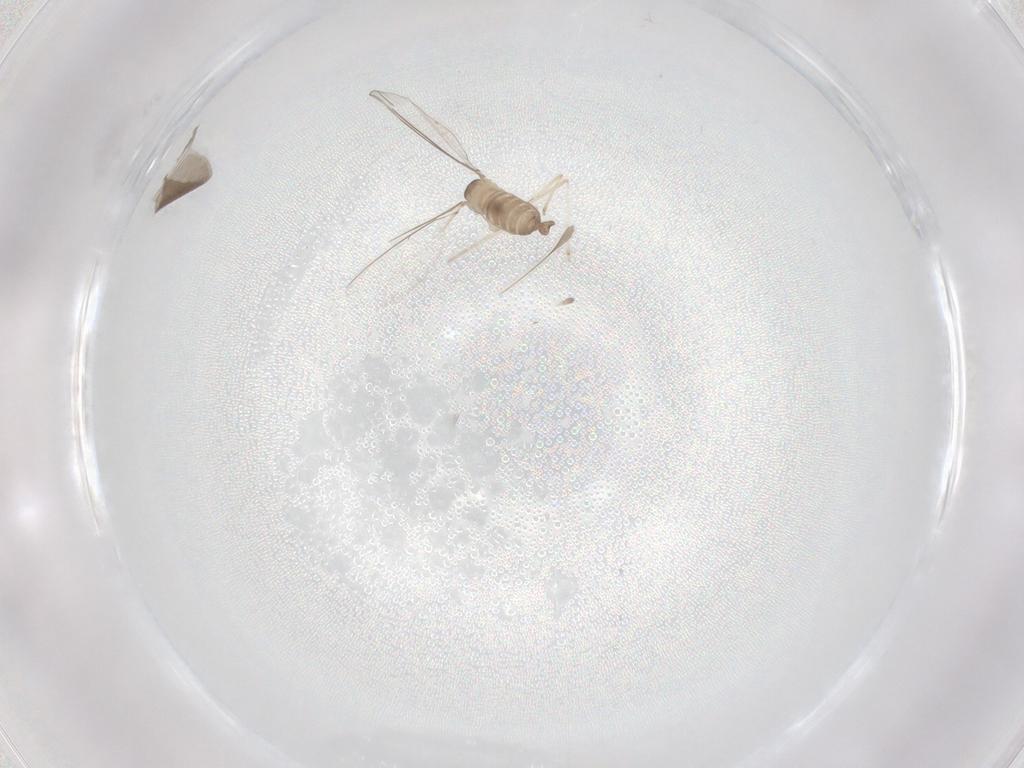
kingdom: Animalia
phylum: Arthropoda
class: Insecta
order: Diptera
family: Cecidomyiidae
